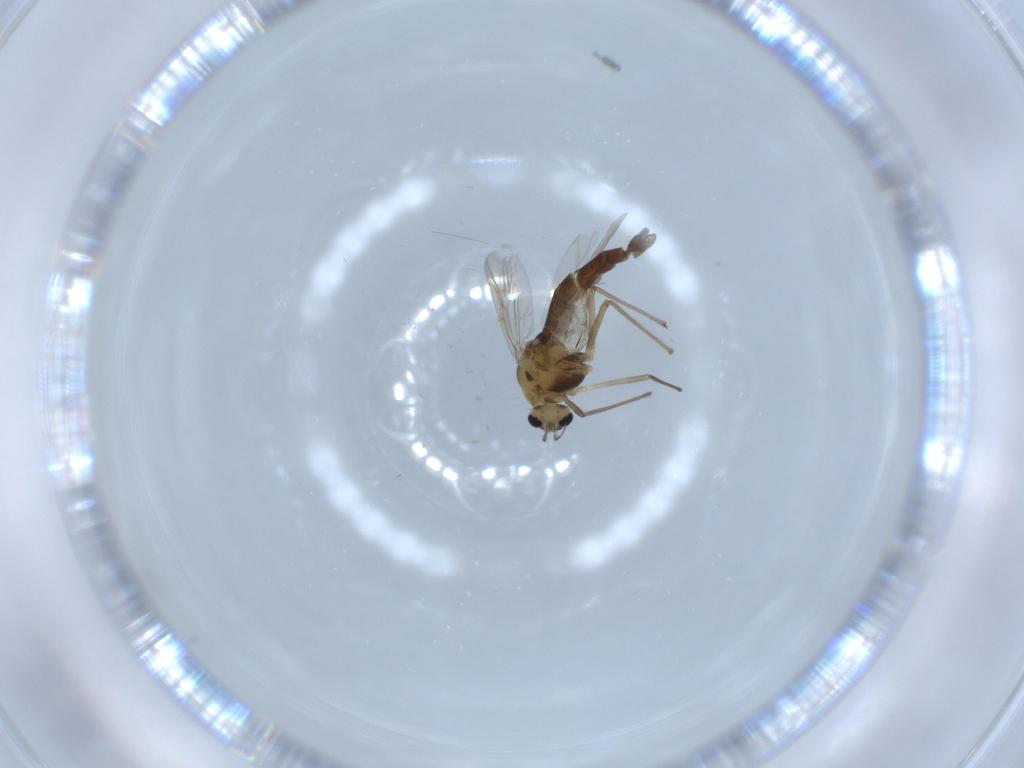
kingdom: Animalia
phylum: Arthropoda
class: Insecta
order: Diptera
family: Chironomidae
